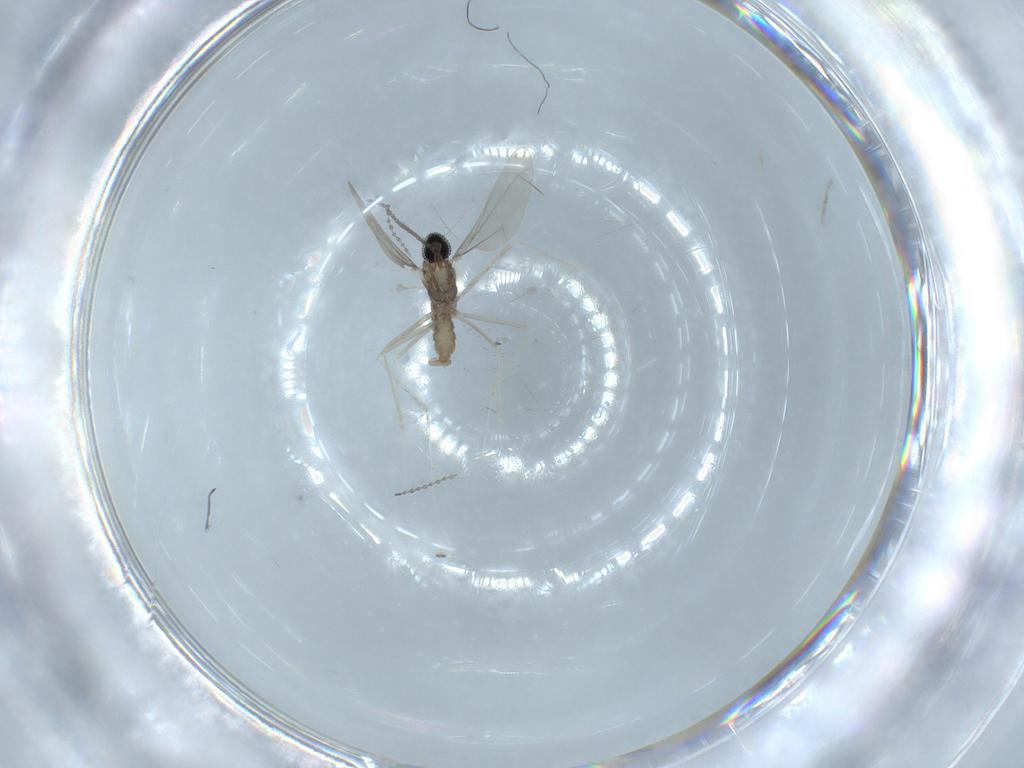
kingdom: Animalia
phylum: Arthropoda
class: Insecta
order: Diptera
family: Cecidomyiidae
